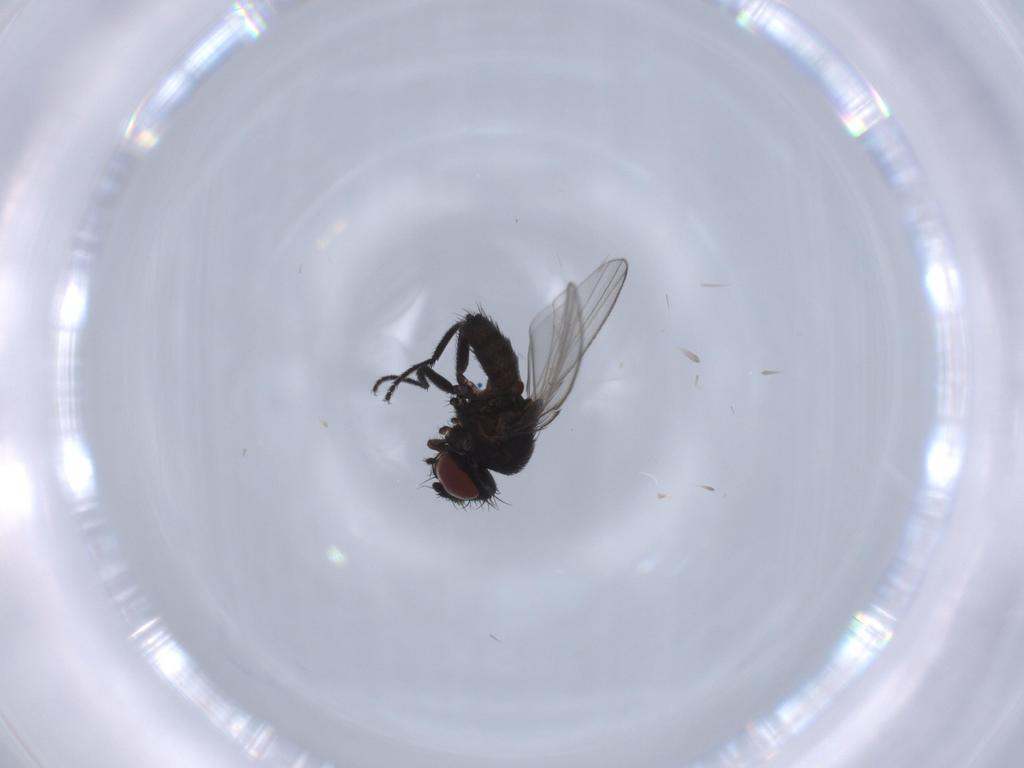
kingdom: Animalia
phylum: Arthropoda
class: Insecta
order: Diptera
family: Milichiidae
